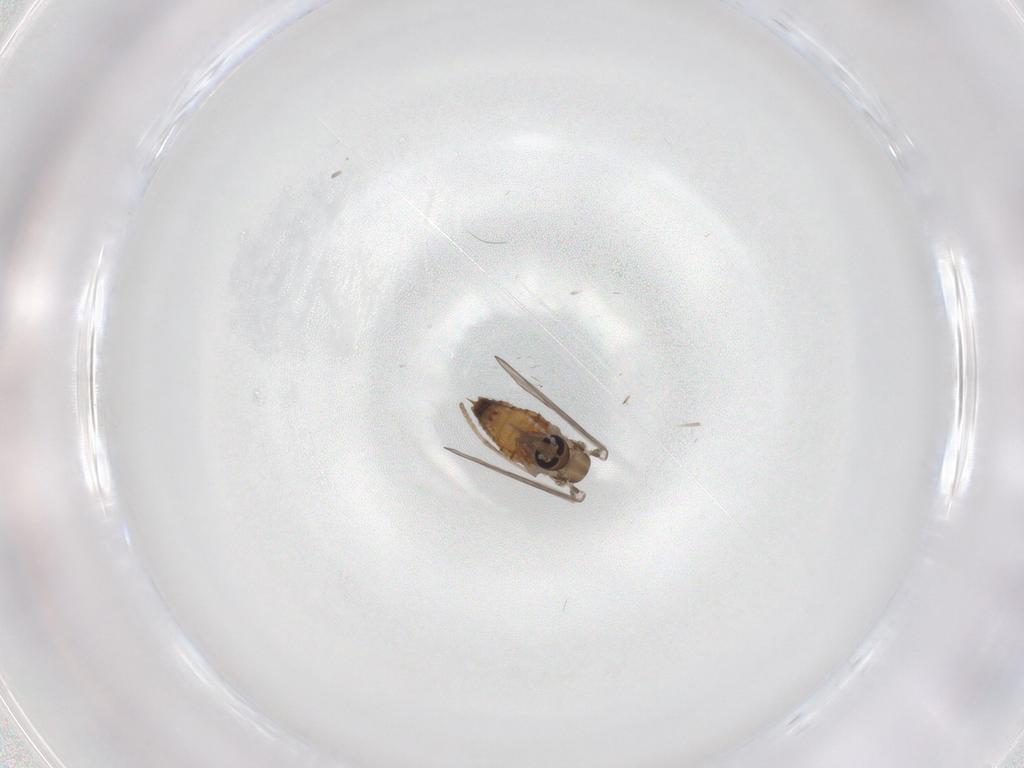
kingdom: Animalia
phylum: Arthropoda
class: Insecta
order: Diptera
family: Psychodidae
